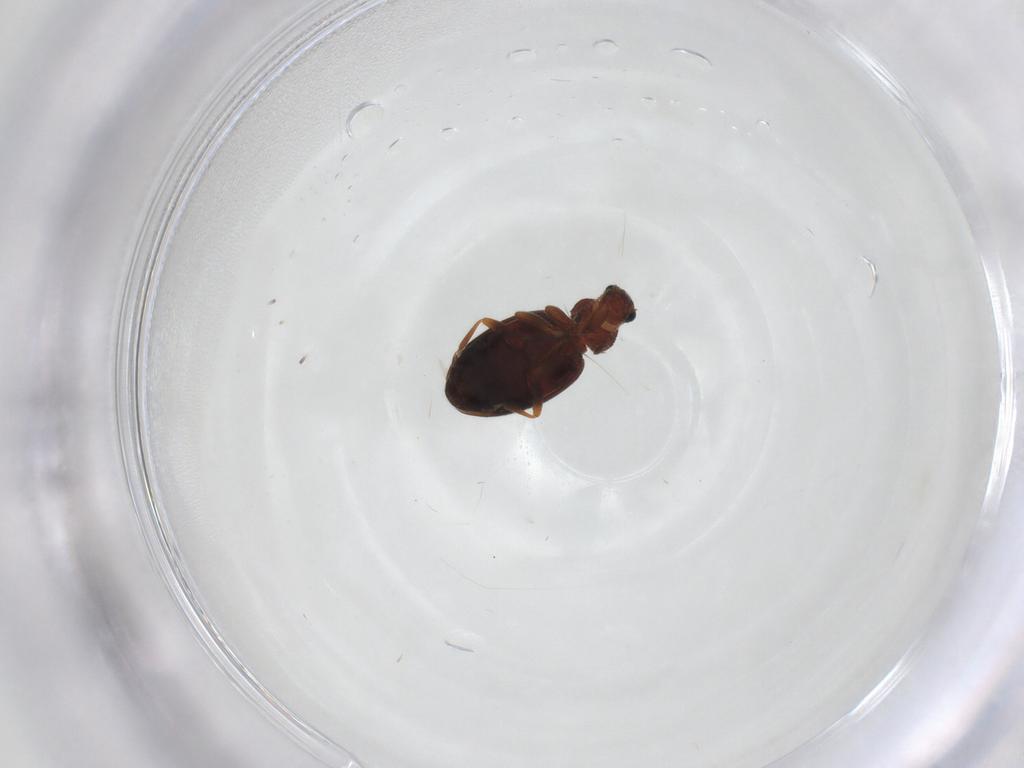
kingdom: Animalia
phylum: Arthropoda
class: Insecta
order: Coleoptera
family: Latridiidae
